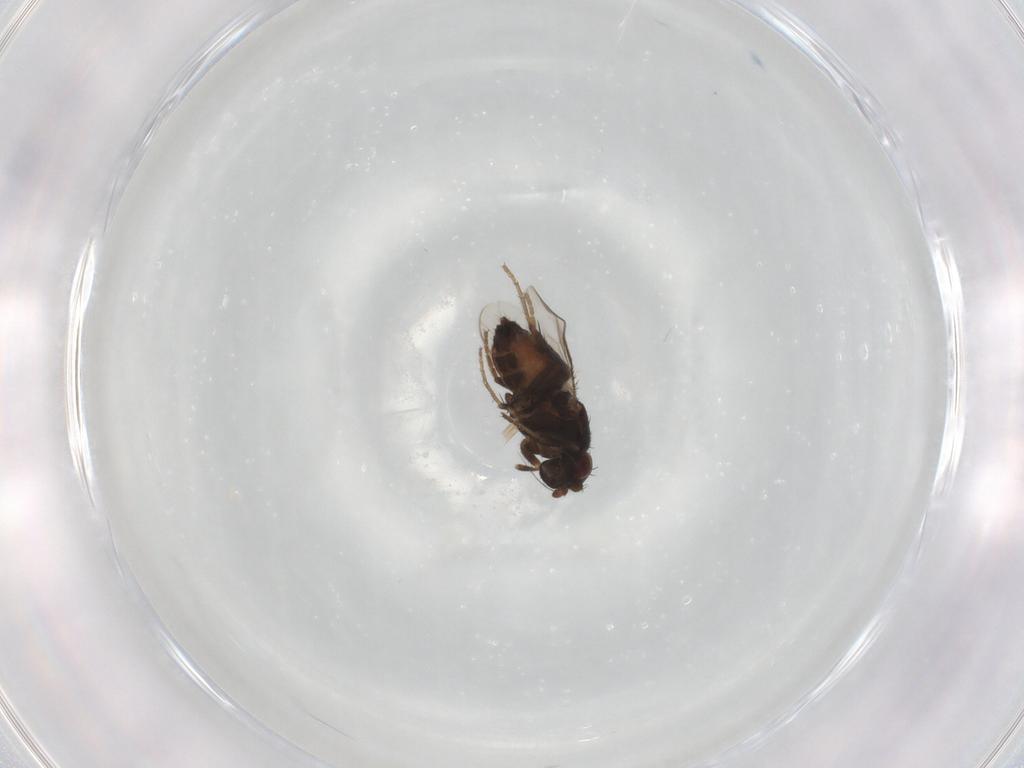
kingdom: Animalia
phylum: Arthropoda
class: Insecta
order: Diptera
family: Sphaeroceridae
